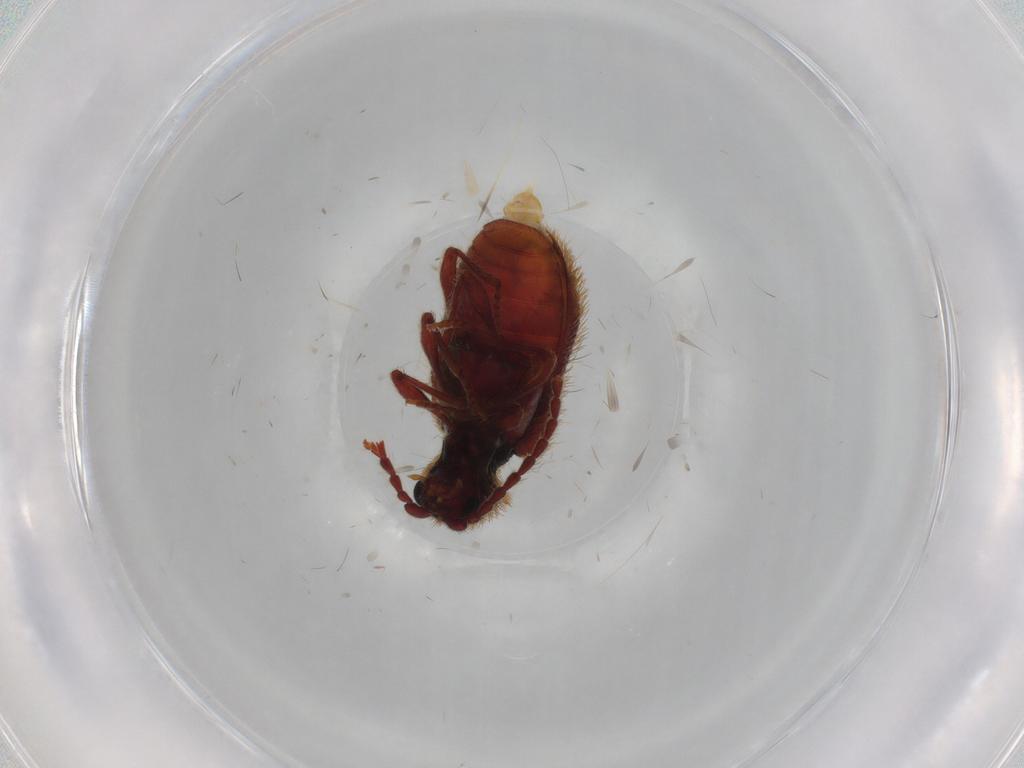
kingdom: Animalia
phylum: Arthropoda
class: Insecta
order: Coleoptera
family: Ptinidae
